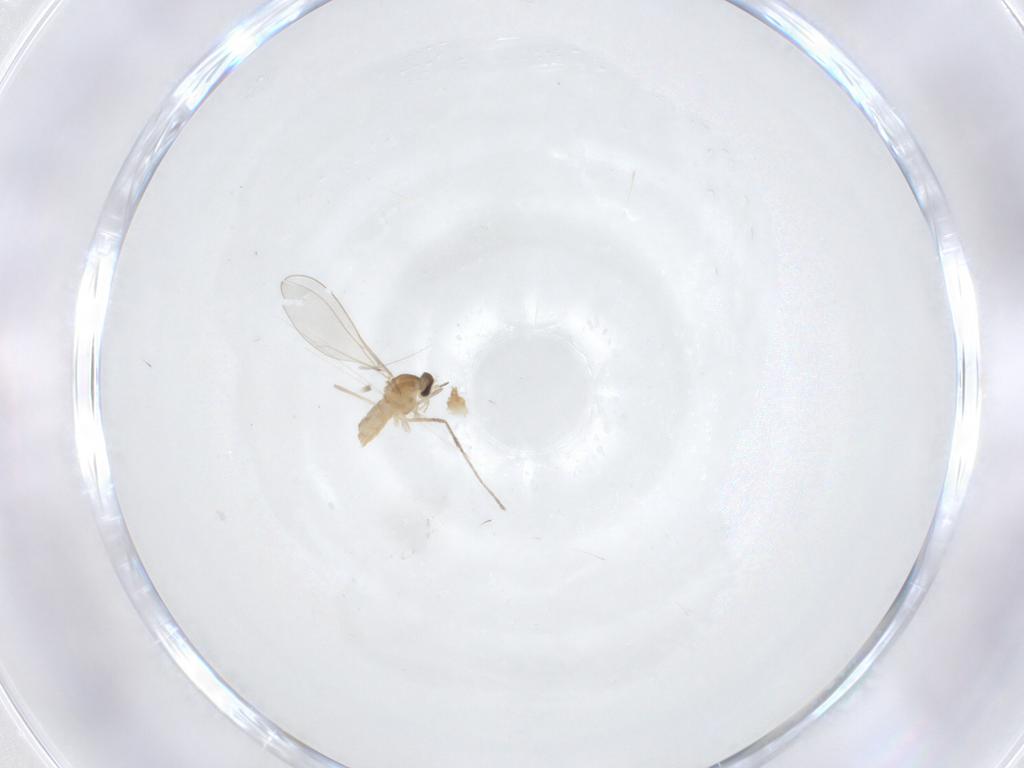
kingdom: Animalia
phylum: Arthropoda
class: Insecta
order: Diptera
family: Cecidomyiidae
